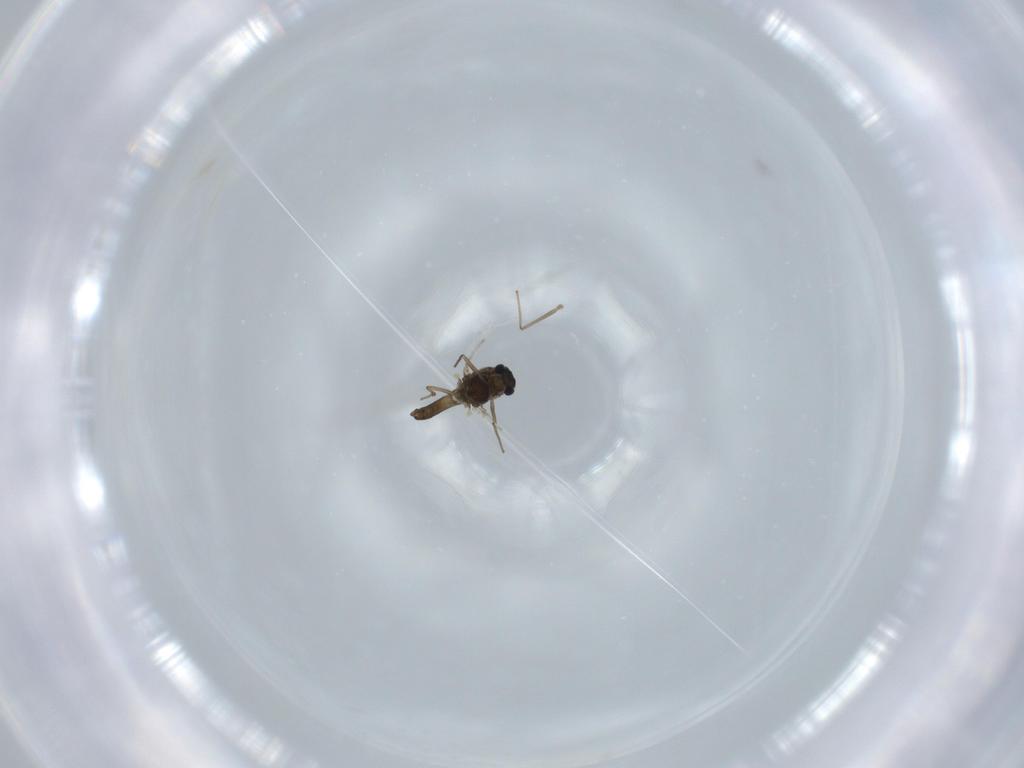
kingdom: Animalia
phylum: Arthropoda
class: Insecta
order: Diptera
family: Chironomidae
